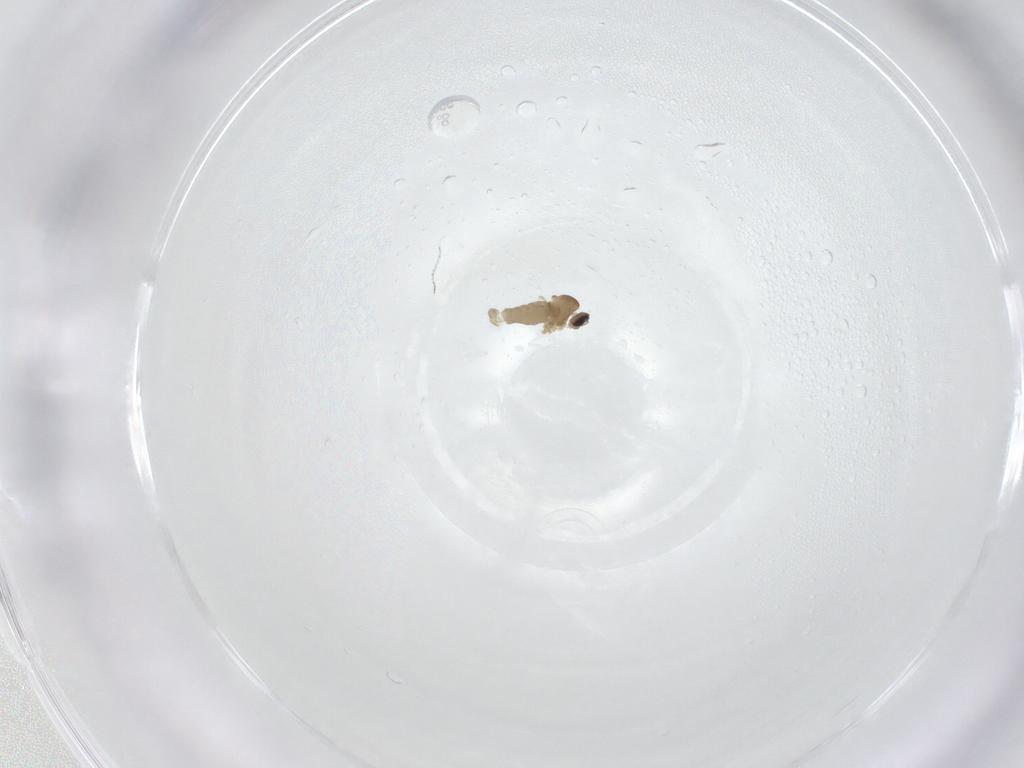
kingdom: Animalia
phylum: Arthropoda
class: Insecta
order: Diptera
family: Cecidomyiidae
